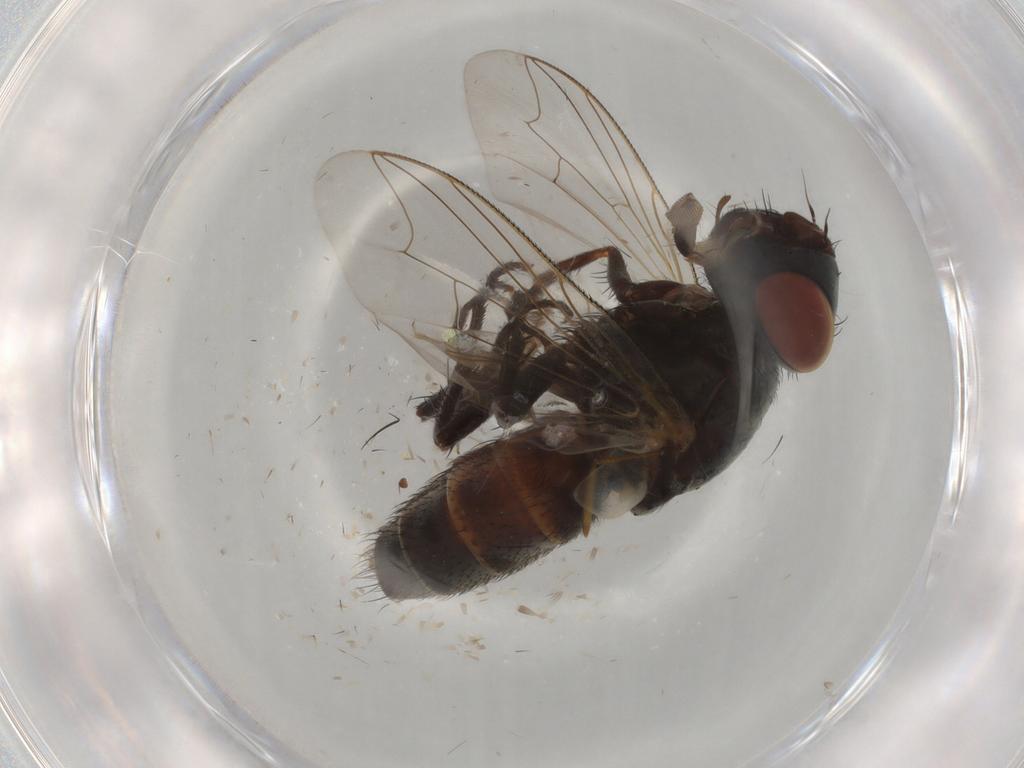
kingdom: Animalia
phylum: Arthropoda
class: Insecta
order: Diptera
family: Sarcophagidae
